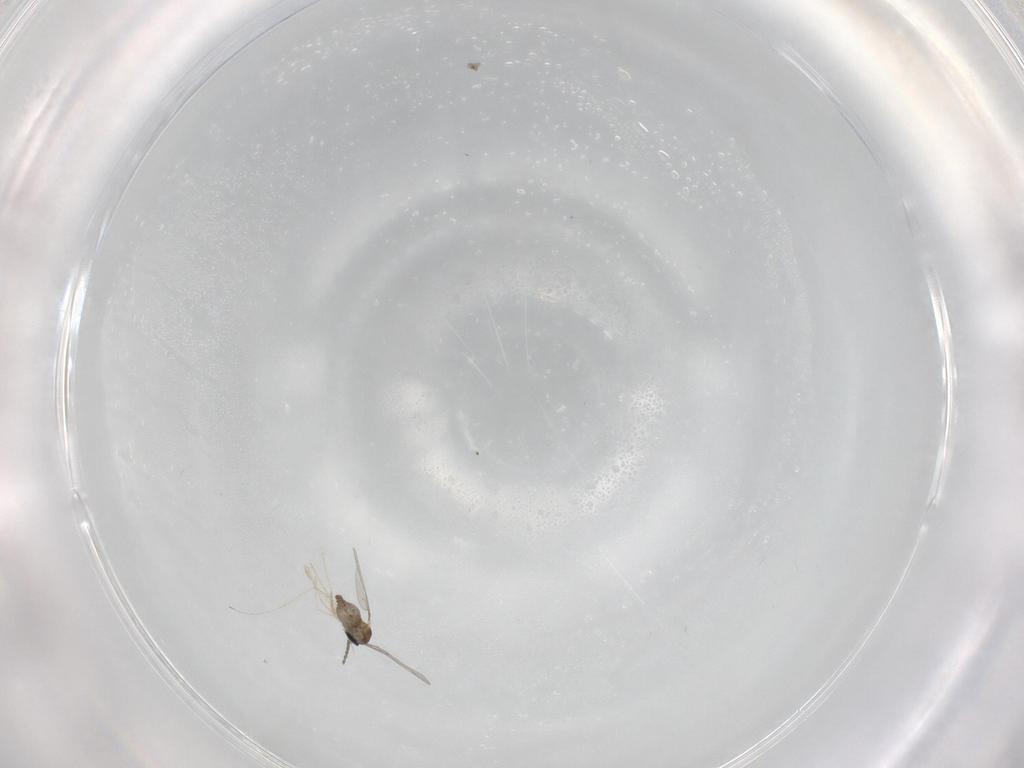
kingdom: Animalia
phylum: Arthropoda
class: Insecta
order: Diptera
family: Cecidomyiidae
